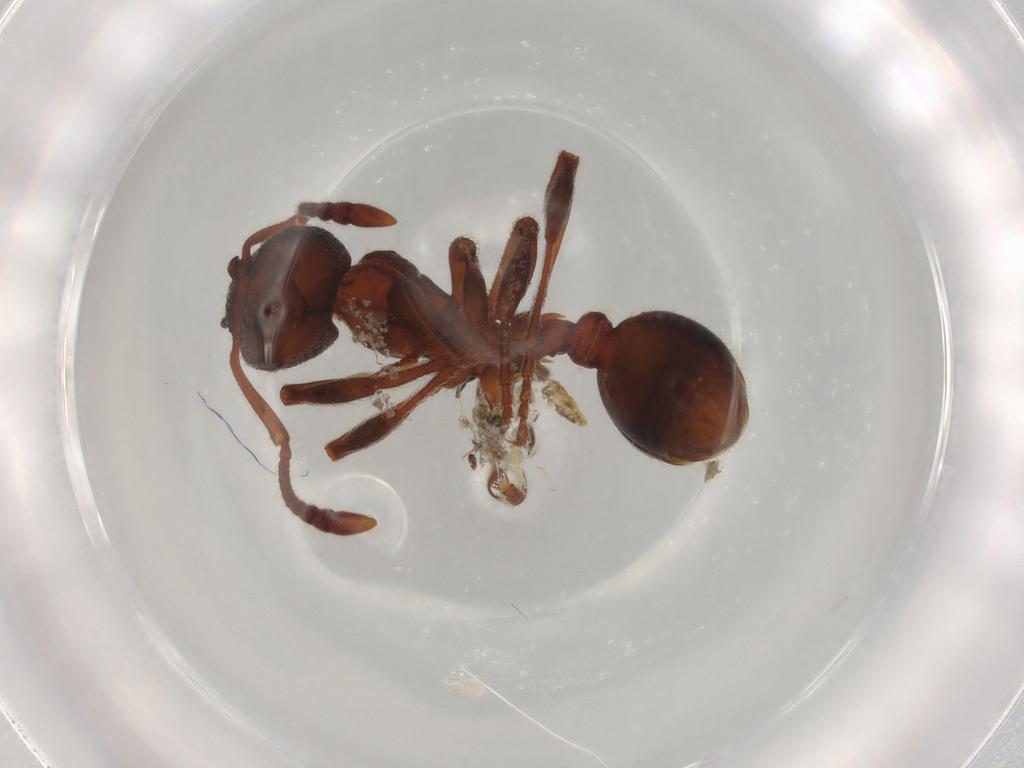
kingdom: Animalia
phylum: Arthropoda
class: Insecta
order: Hymenoptera
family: Formicidae
